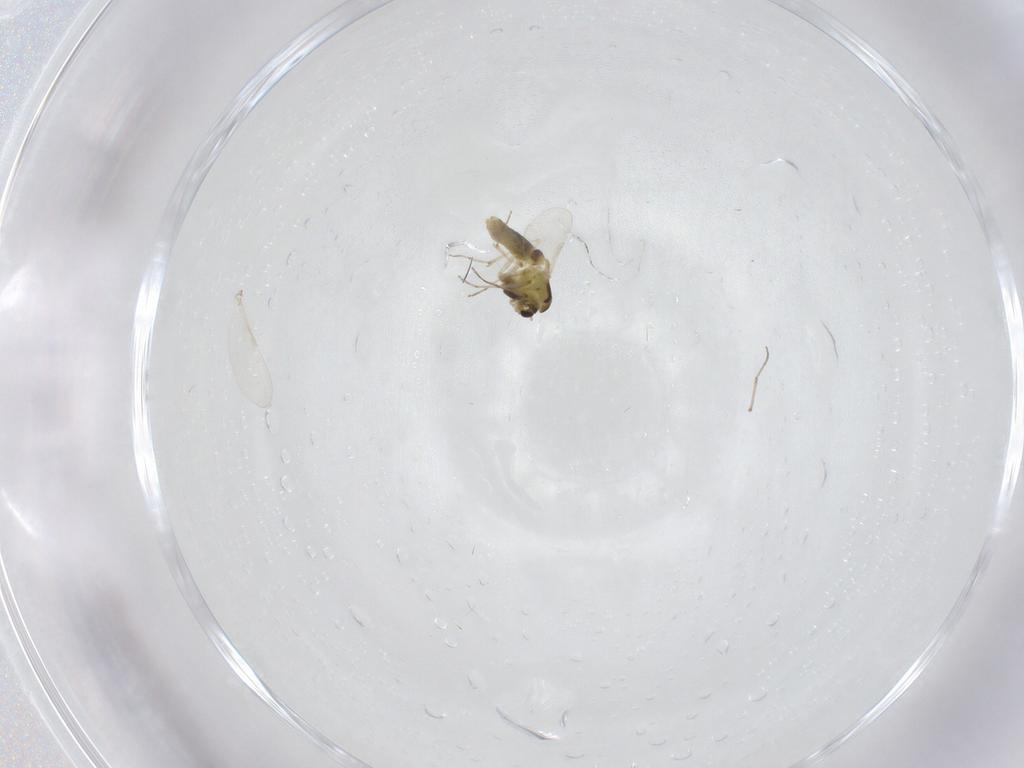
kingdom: Animalia
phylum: Arthropoda
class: Insecta
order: Diptera
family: Chironomidae
